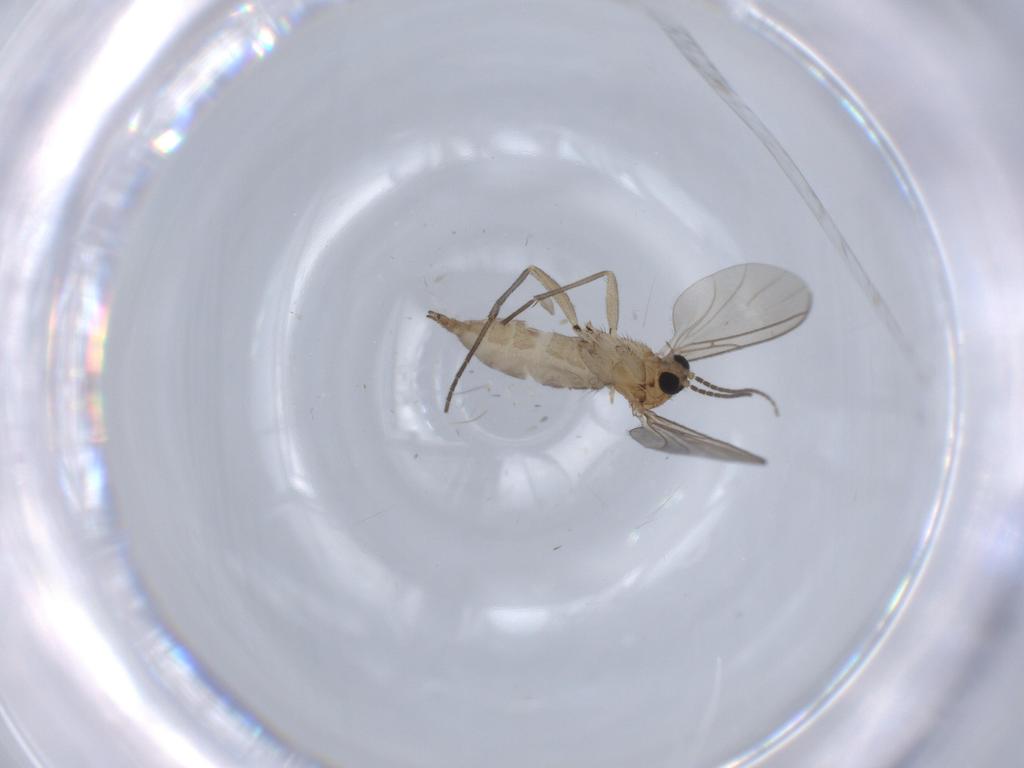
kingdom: Animalia
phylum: Arthropoda
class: Insecta
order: Diptera
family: Sciaridae
